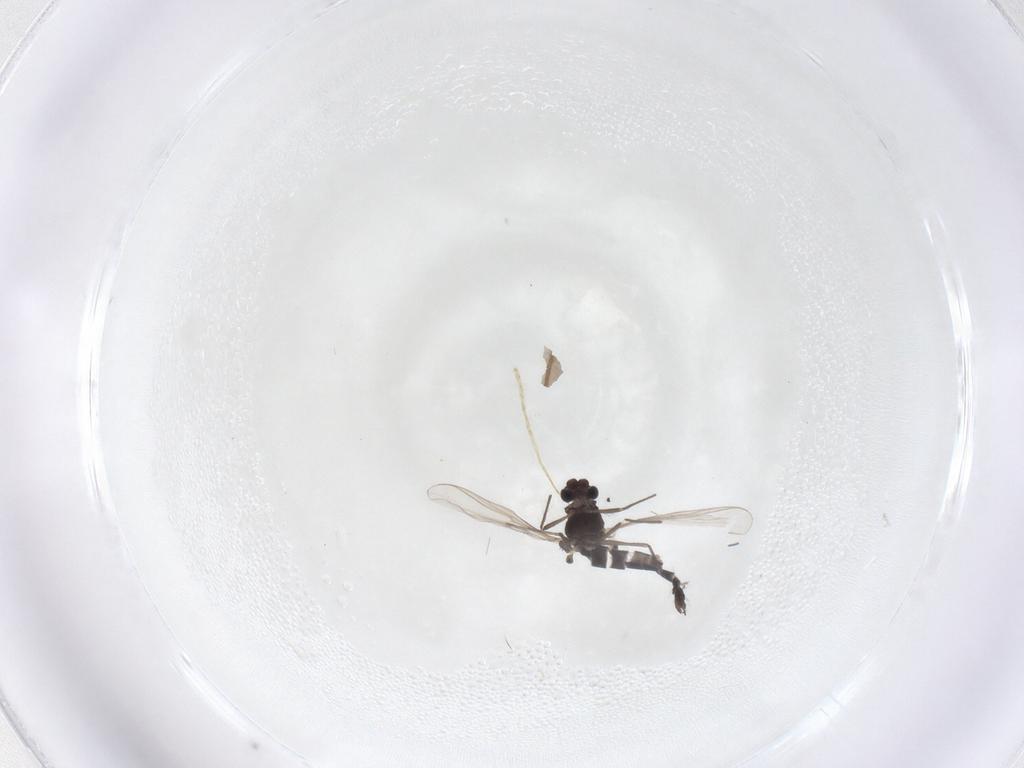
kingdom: Animalia
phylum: Arthropoda
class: Insecta
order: Diptera
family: Chironomidae
